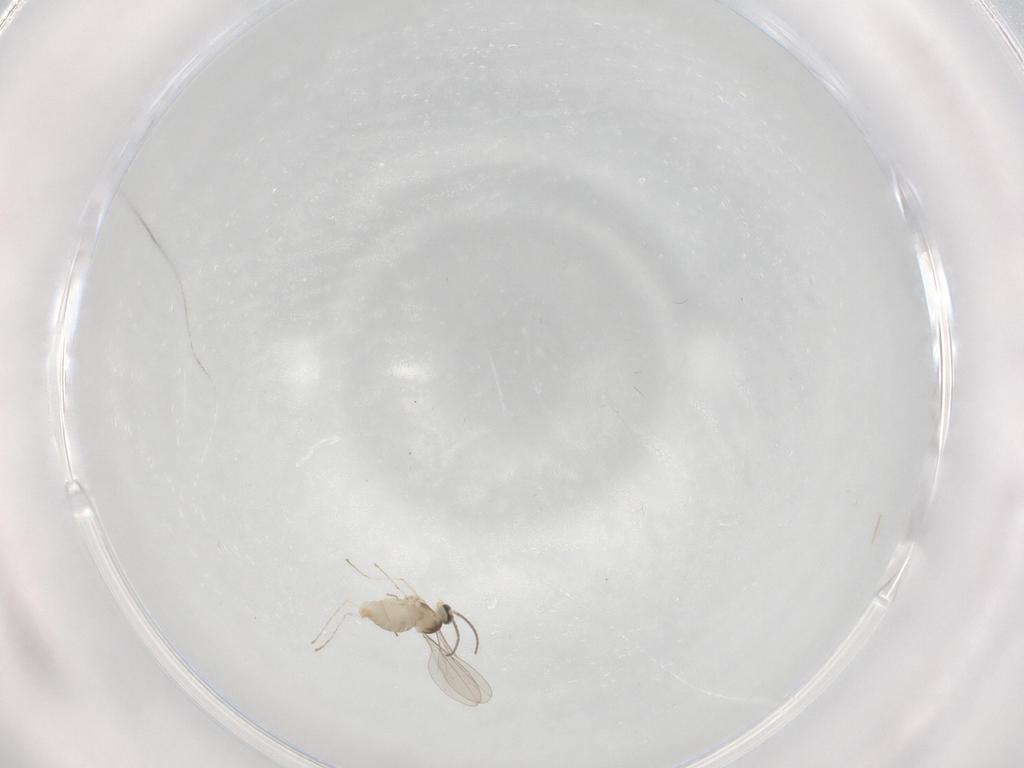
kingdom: Animalia
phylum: Arthropoda
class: Insecta
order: Diptera
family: Cecidomyiidae
